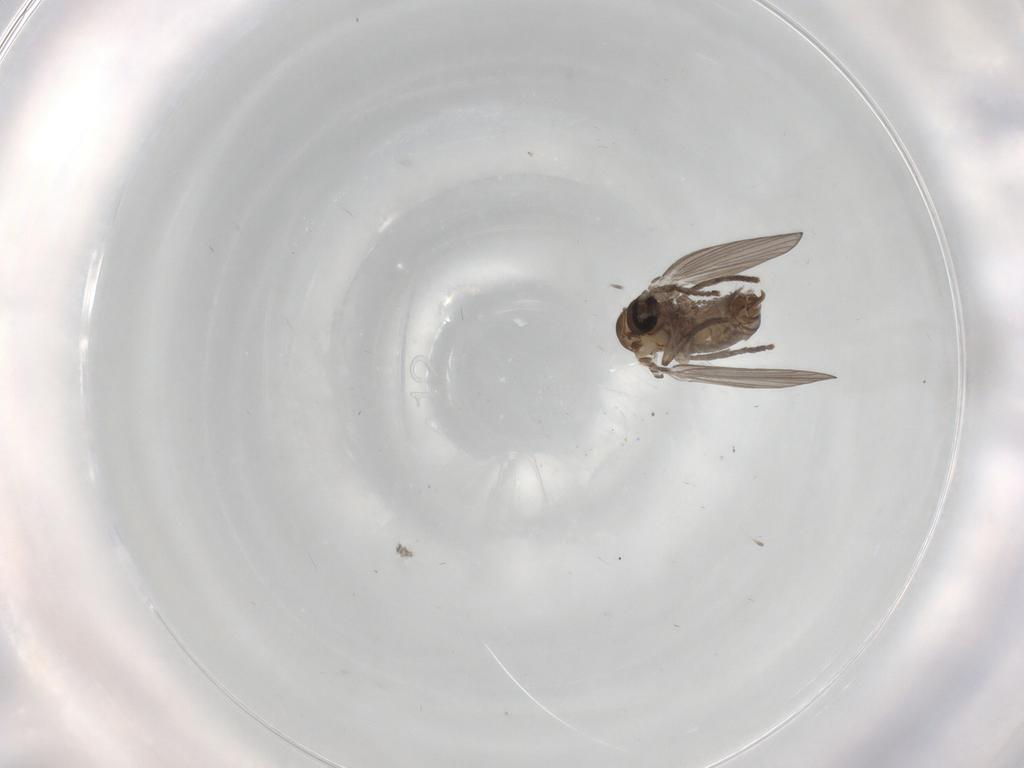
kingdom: Animalia
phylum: Arthropoda
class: Insecta
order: Diptera
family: Psychodidae
